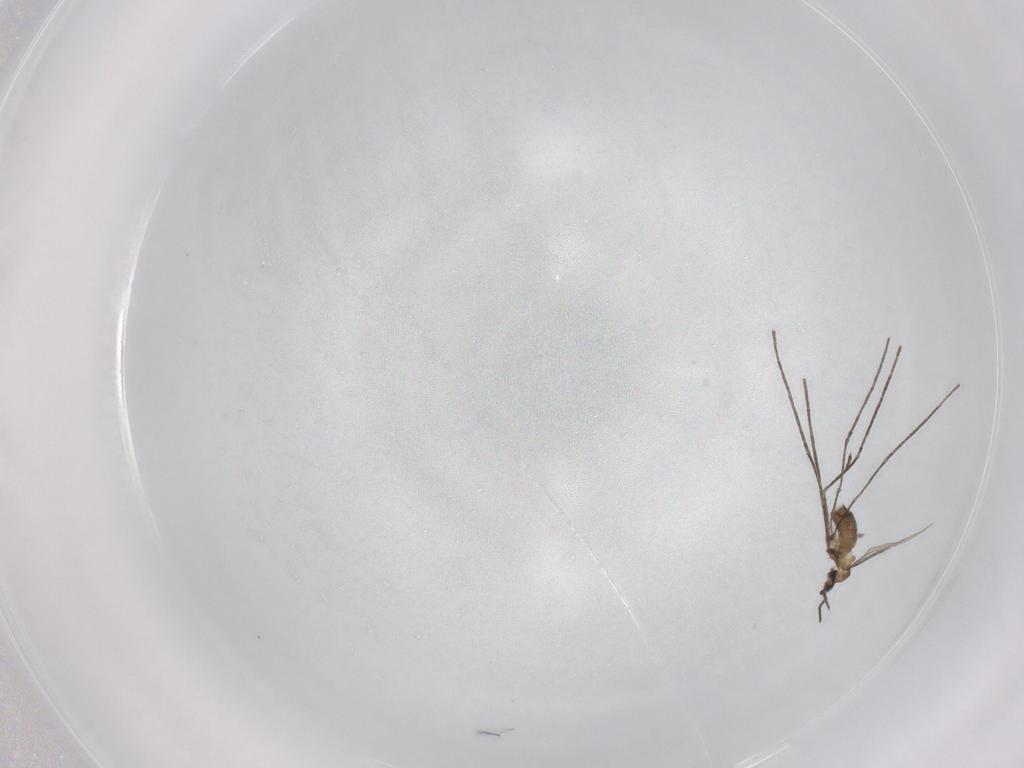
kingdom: Animalia
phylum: Arthropoda
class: Insecta
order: Diptera
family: Cecidomyiidae
